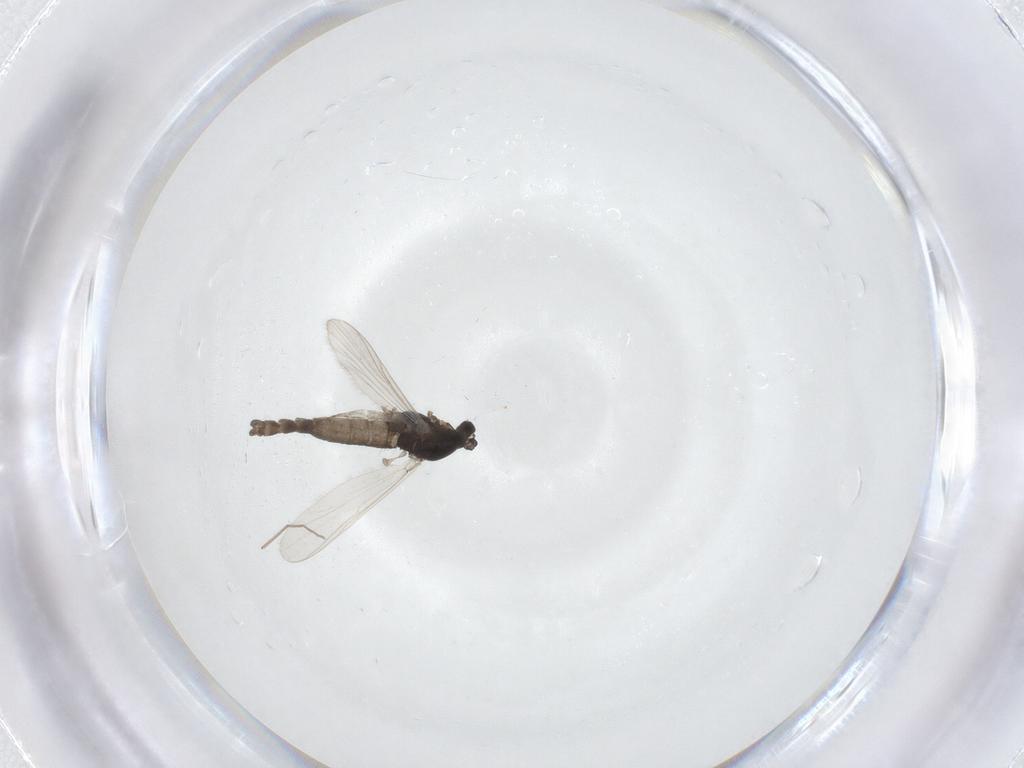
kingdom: Animalia
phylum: Arthropoda
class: Insecta
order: Diptera
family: Chironomidae
